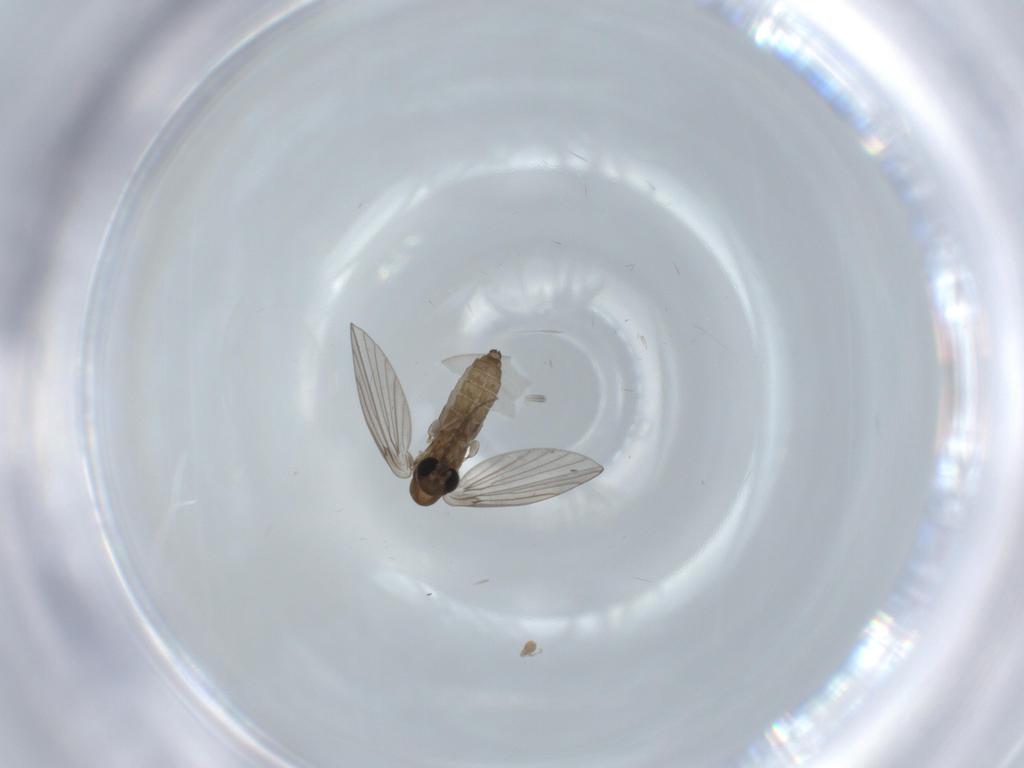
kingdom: Animalia
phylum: Arthropoda
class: Insecta
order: Diptera
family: Psychodidae
